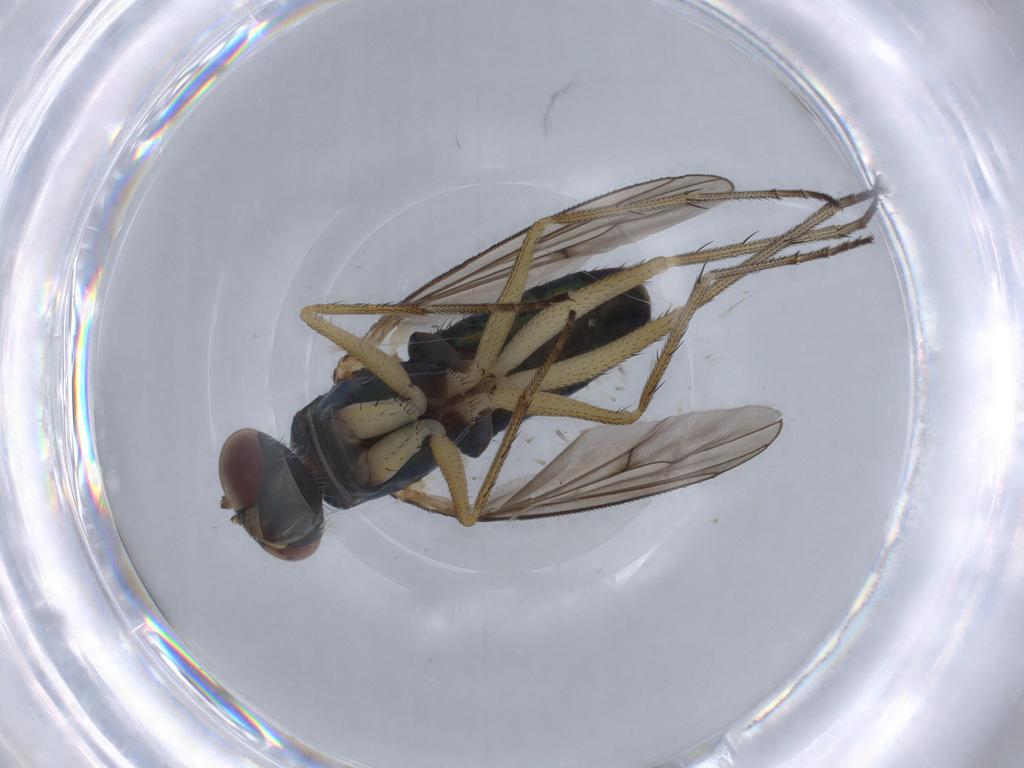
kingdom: Animalia
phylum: Arthropoda
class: Insecta
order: Diptera
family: Dolichopodidae
